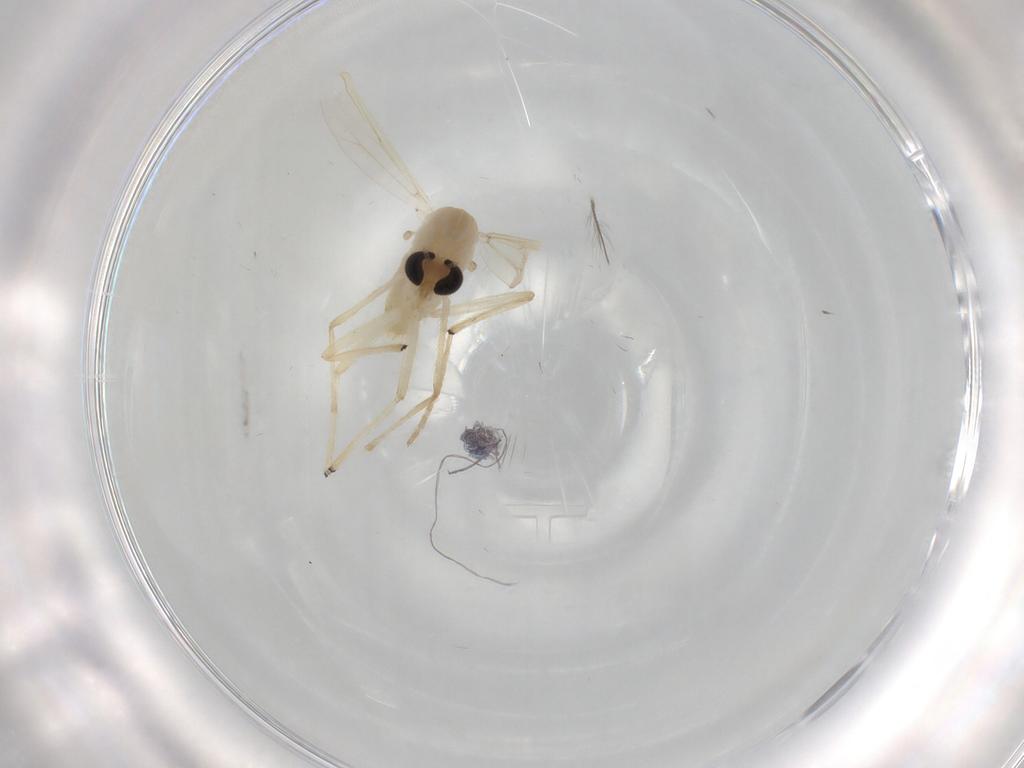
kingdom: Animalia
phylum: Arthropoda
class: Insecta
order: Diptera
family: Chironomidae
